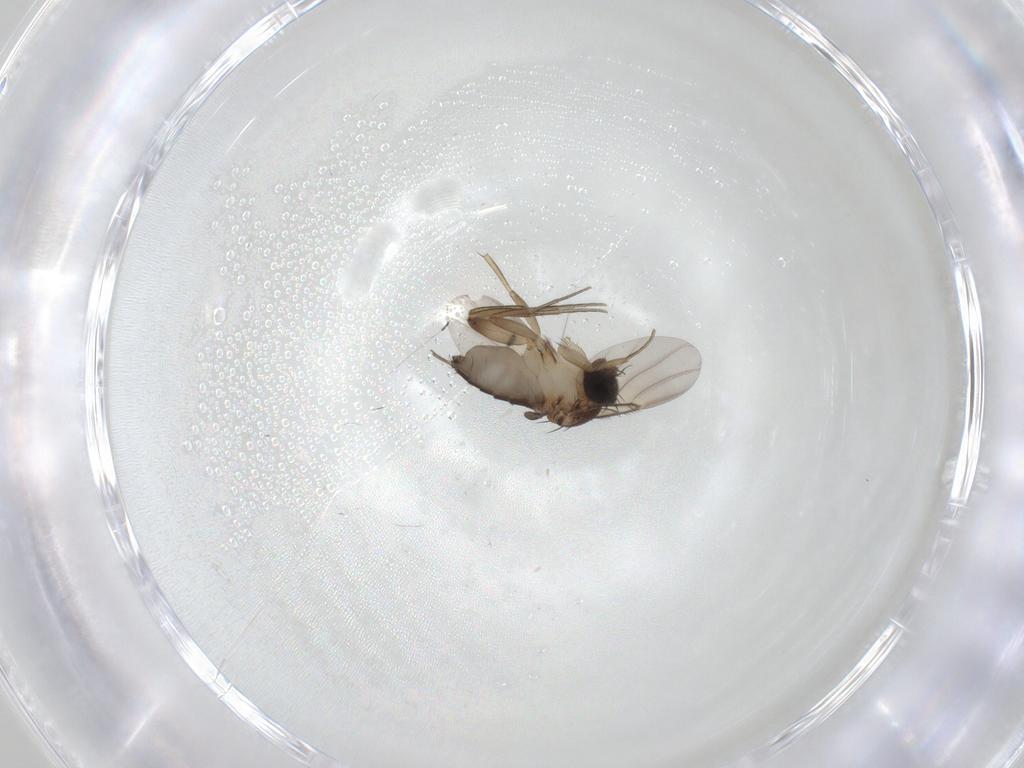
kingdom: Animalia
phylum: Arthropoda
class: Insecta
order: Diptera
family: Phoridae
